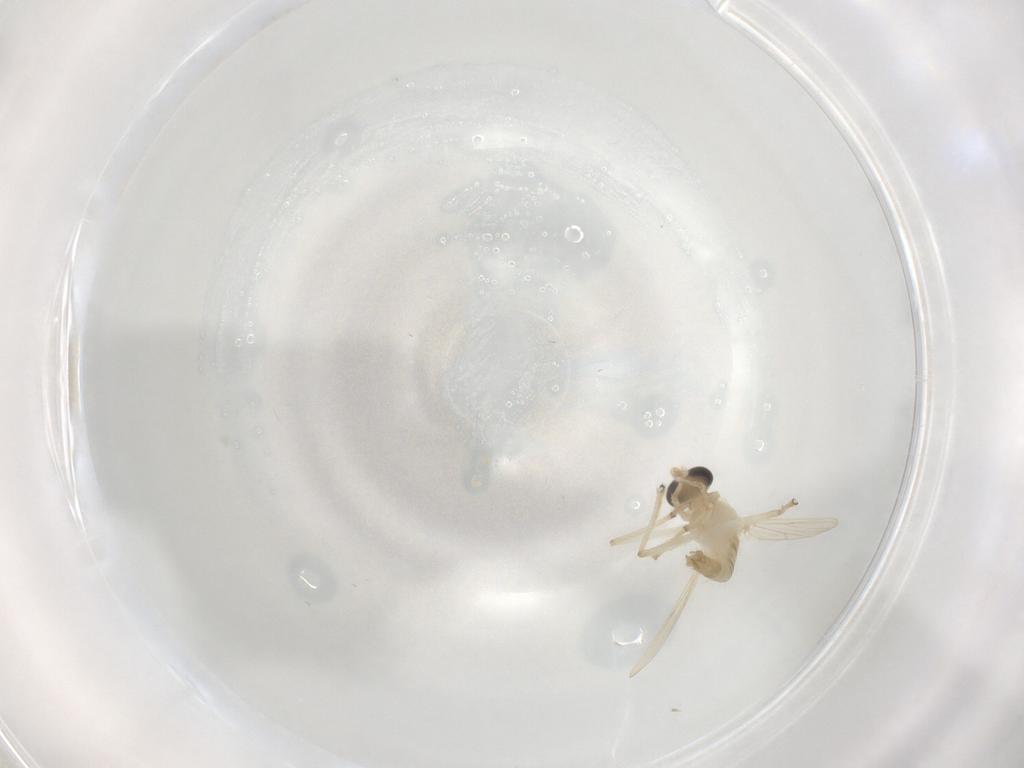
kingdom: Animalia
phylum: Arthropoda
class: Insecta
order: Diptera
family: Chironomidae
